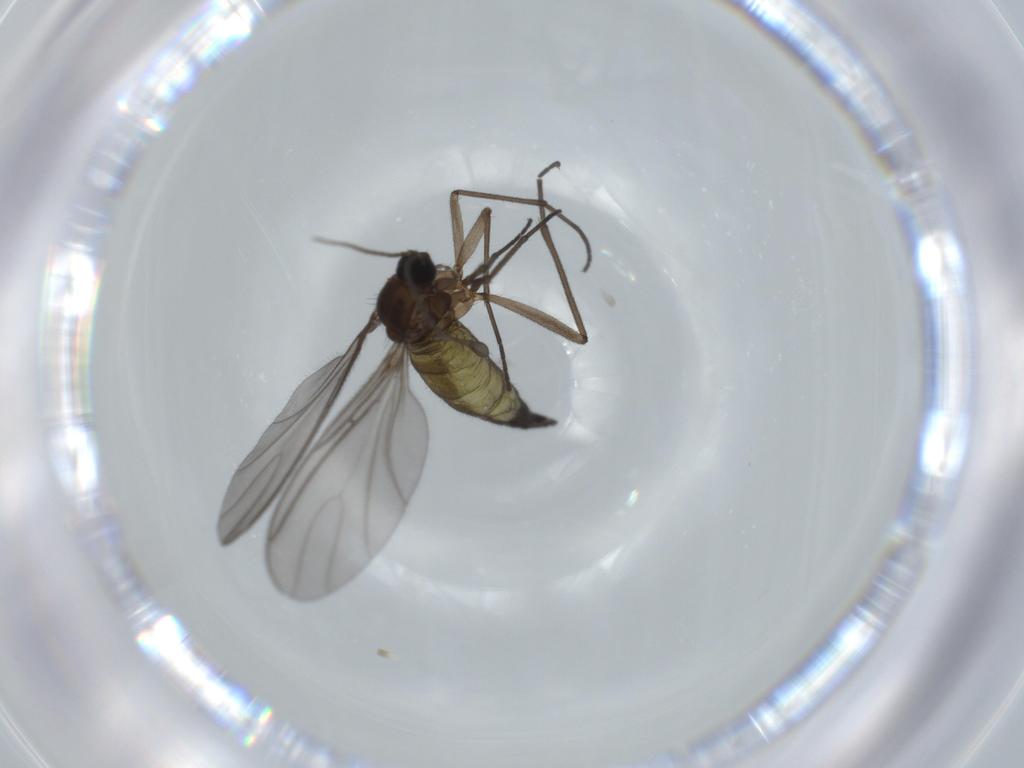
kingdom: Animalia
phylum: Arthropoda
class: Insecta
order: Diptera
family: Sciaridae
